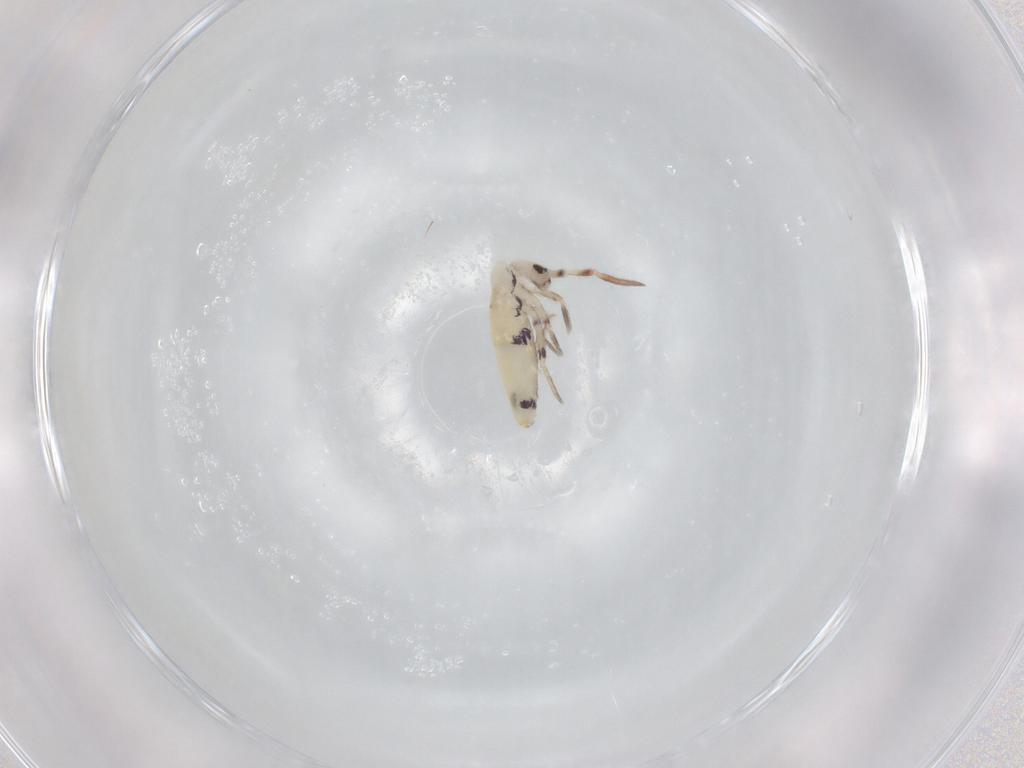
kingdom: Animalia
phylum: Arthropoda
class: Collembola
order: Entomobryomorpha
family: Entomobryidae
